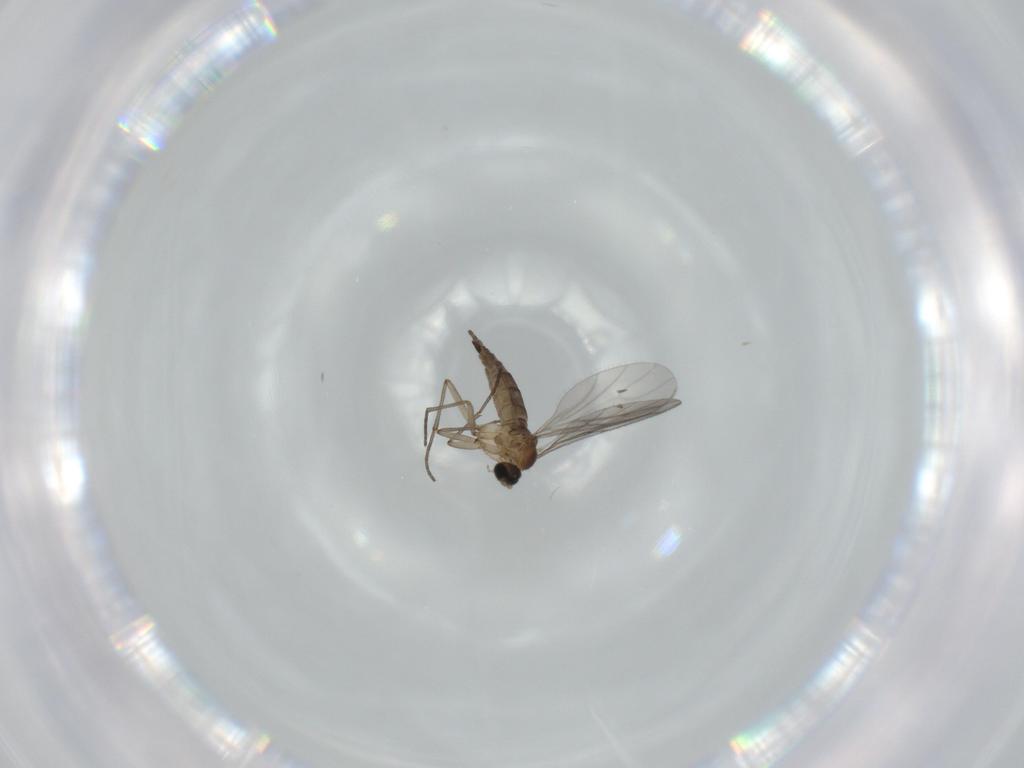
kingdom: Animalia
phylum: Arthropoda
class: Insecta
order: Diptera
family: Sciaridae
